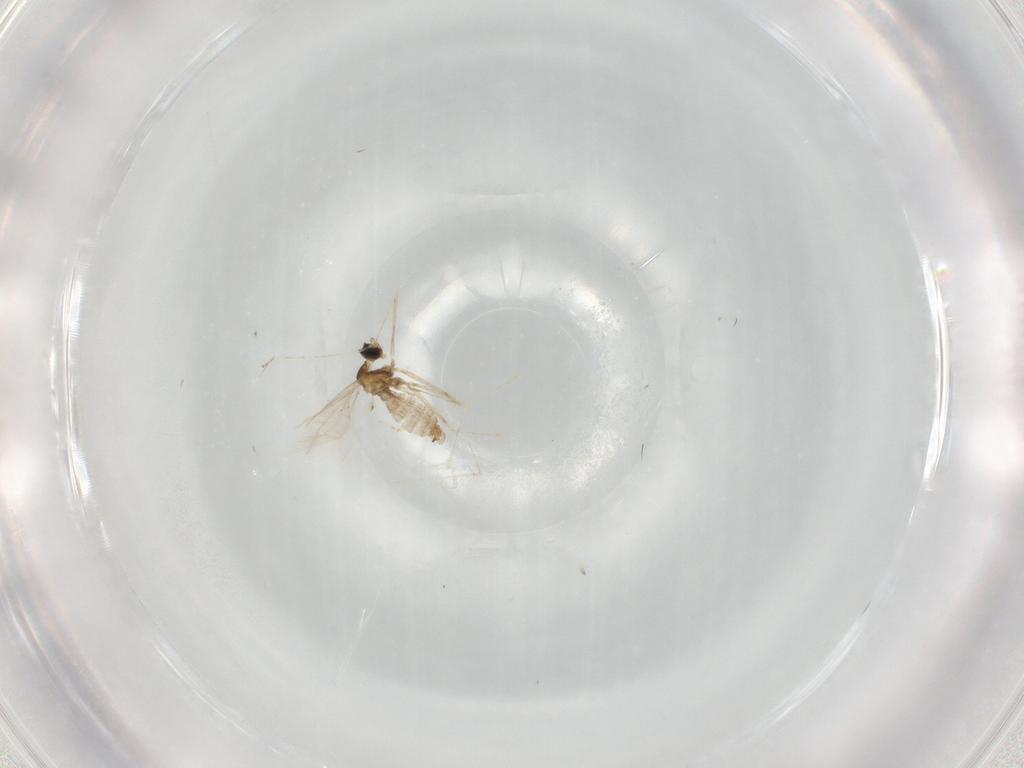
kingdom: Animalia
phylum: Arthropoda
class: Insecta
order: Diptera
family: Cecidomyiidae
